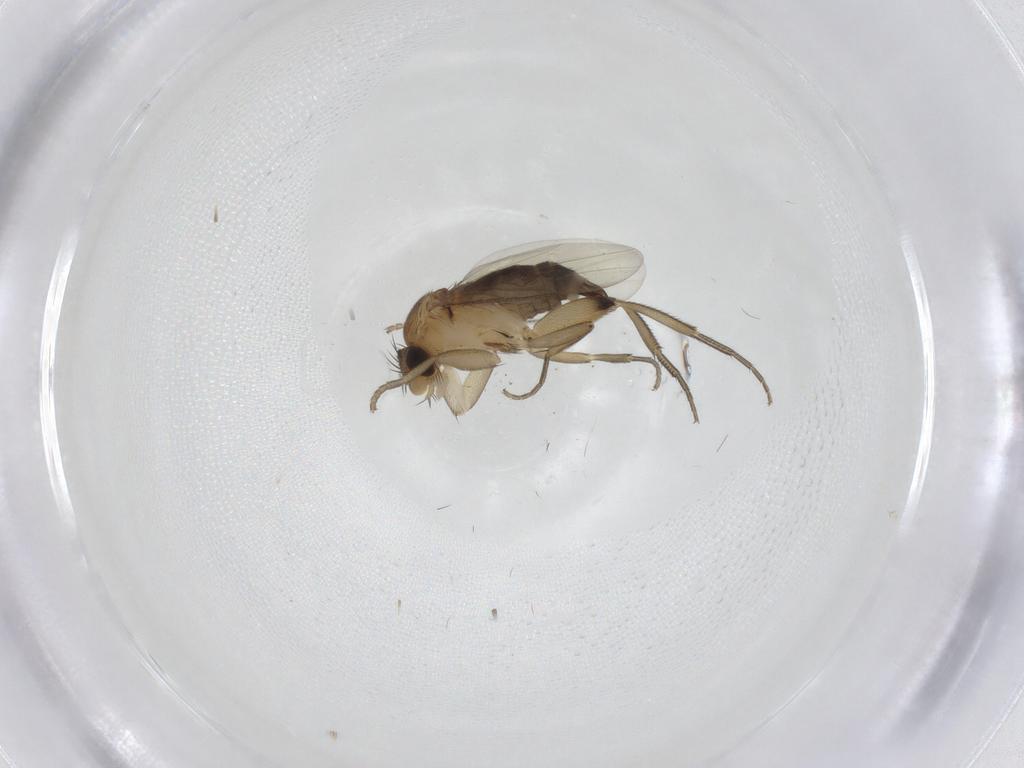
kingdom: Animalia
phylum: Arthropoda
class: Insecta
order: Diptera
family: Phoridae
